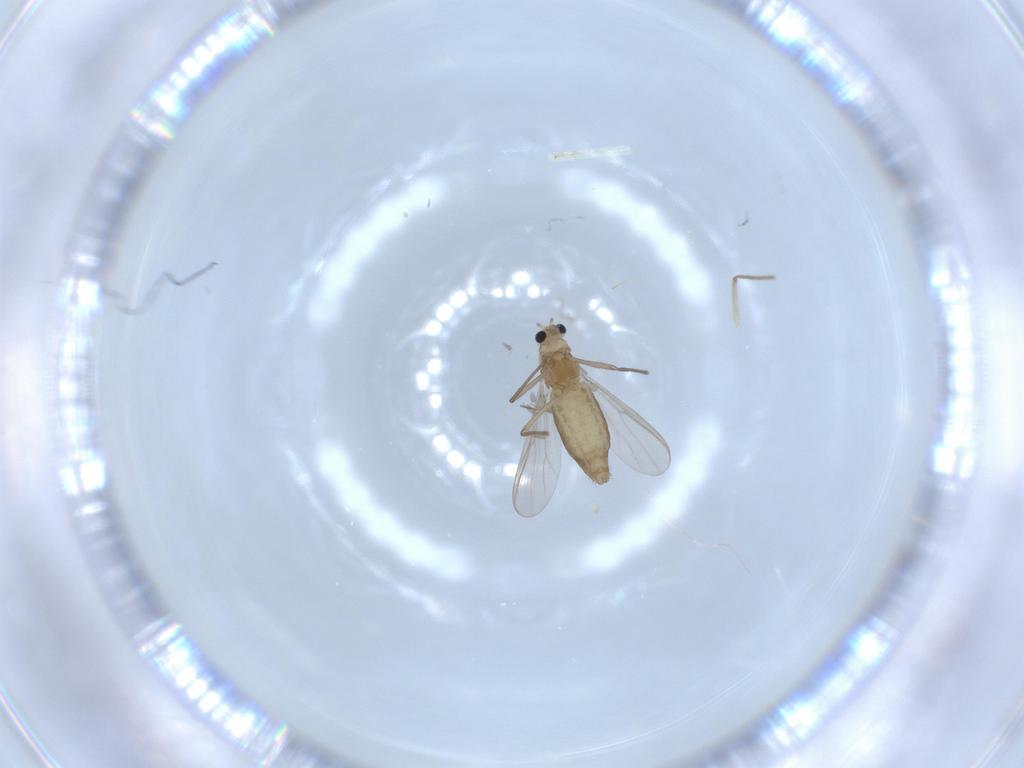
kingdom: Animalia
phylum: Arthropoda
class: Insecta
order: Diptera
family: Chironomidae
